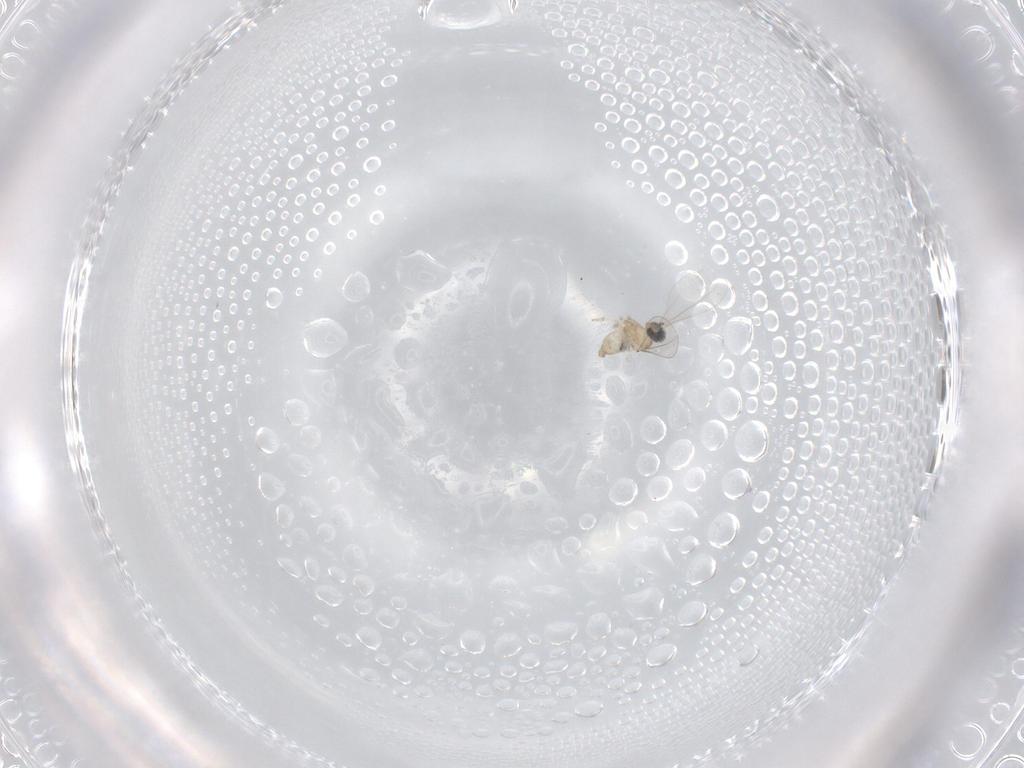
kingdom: Animalia
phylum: Arthropoda
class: Insecta
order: Diptera
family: Cecidomyiidae
